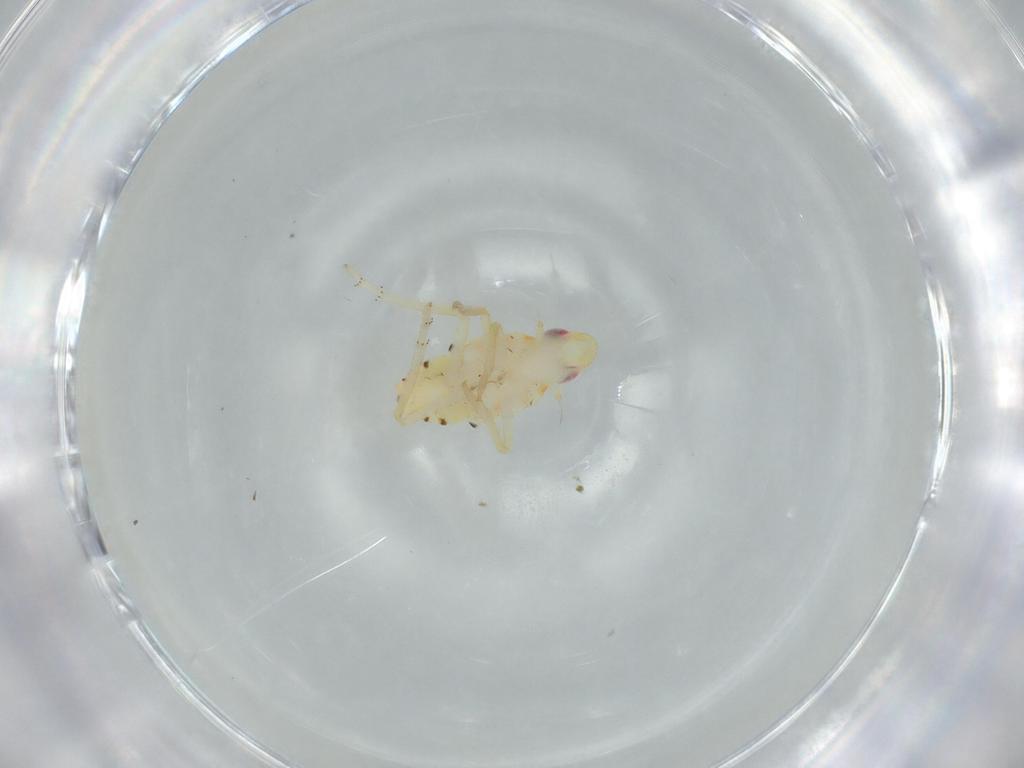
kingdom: Animalia
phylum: Arthropoda
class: Insecta
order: Hemiptera
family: Tropiduchidae
